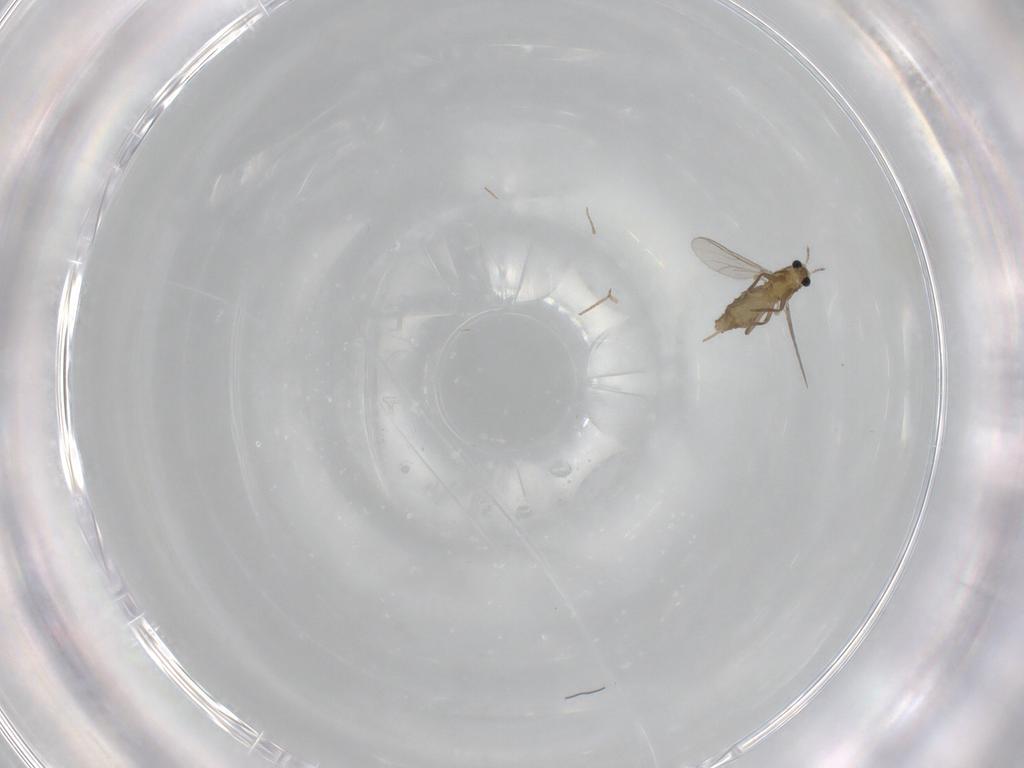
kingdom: Animalia
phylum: Arthropoda
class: Insecta
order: Diptera
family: Chironomidae
